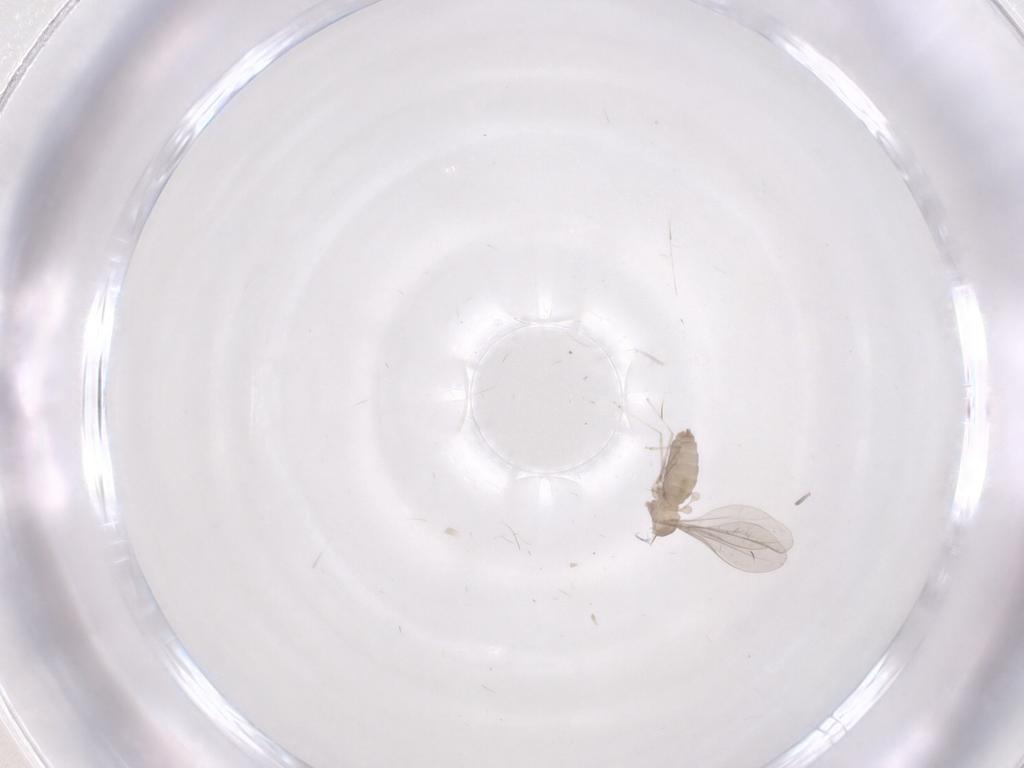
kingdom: Animalia
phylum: Arthropoda
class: Insecta
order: Diptera
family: Cecidomyiidae
